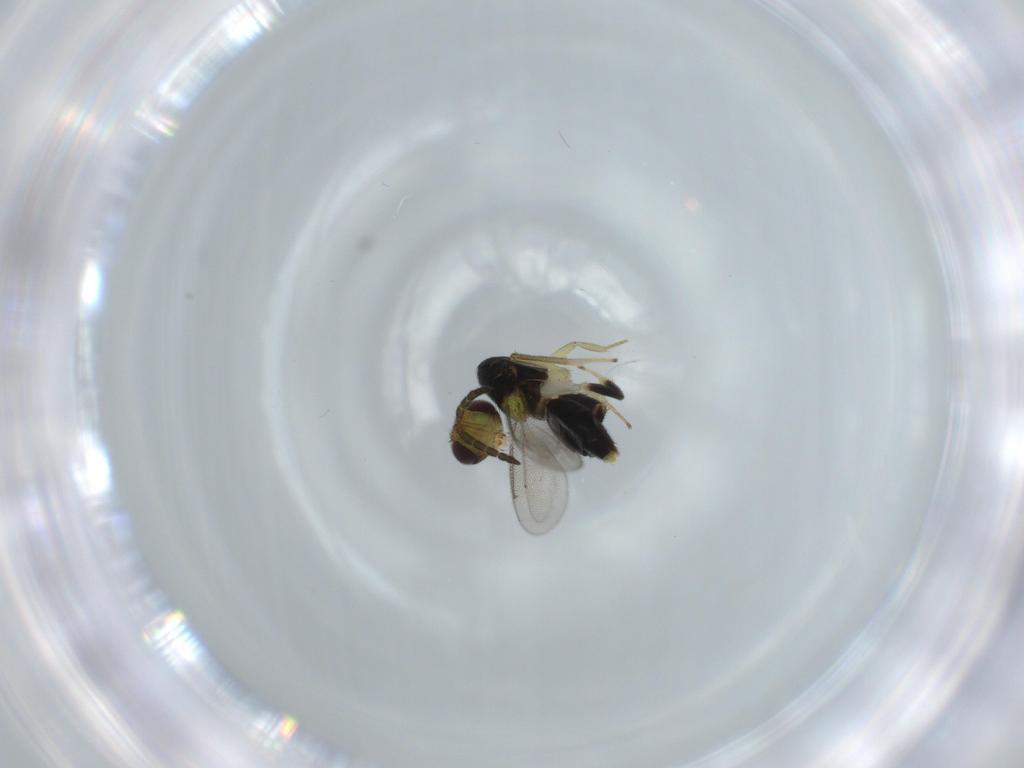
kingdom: Animalia
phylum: Arthropoda
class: Insecta
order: Hymenoptera
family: Aphelinidae
